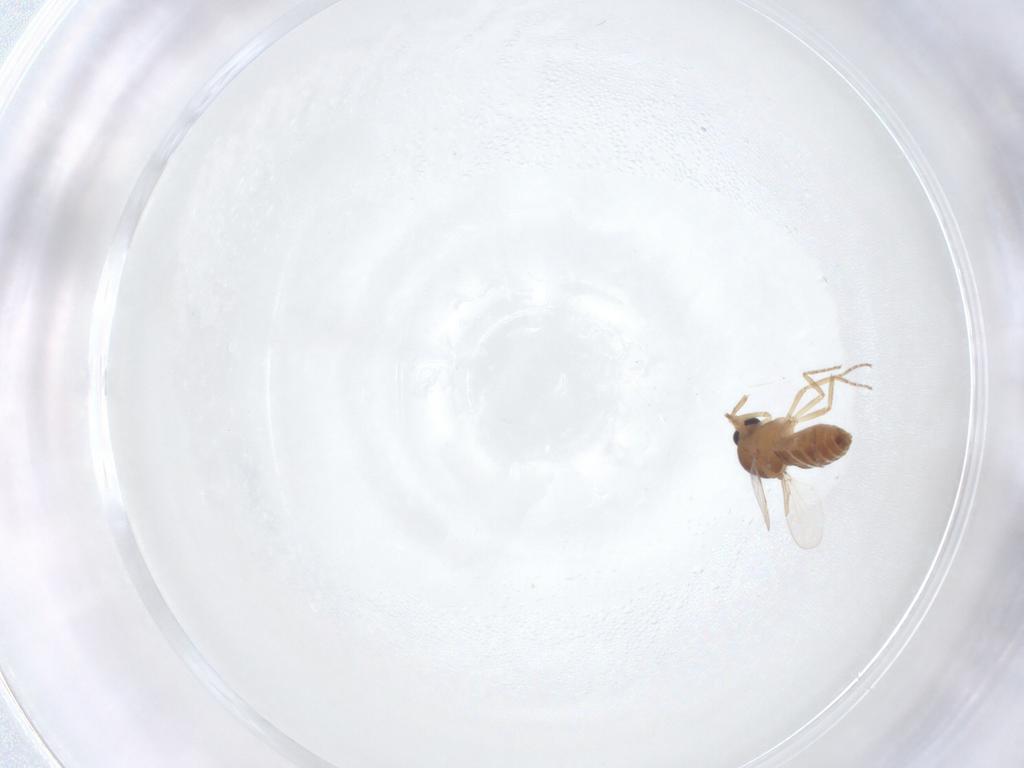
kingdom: Animalia
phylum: Arthropoda
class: Insecta
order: Diptera
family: Ceratopogonidae
